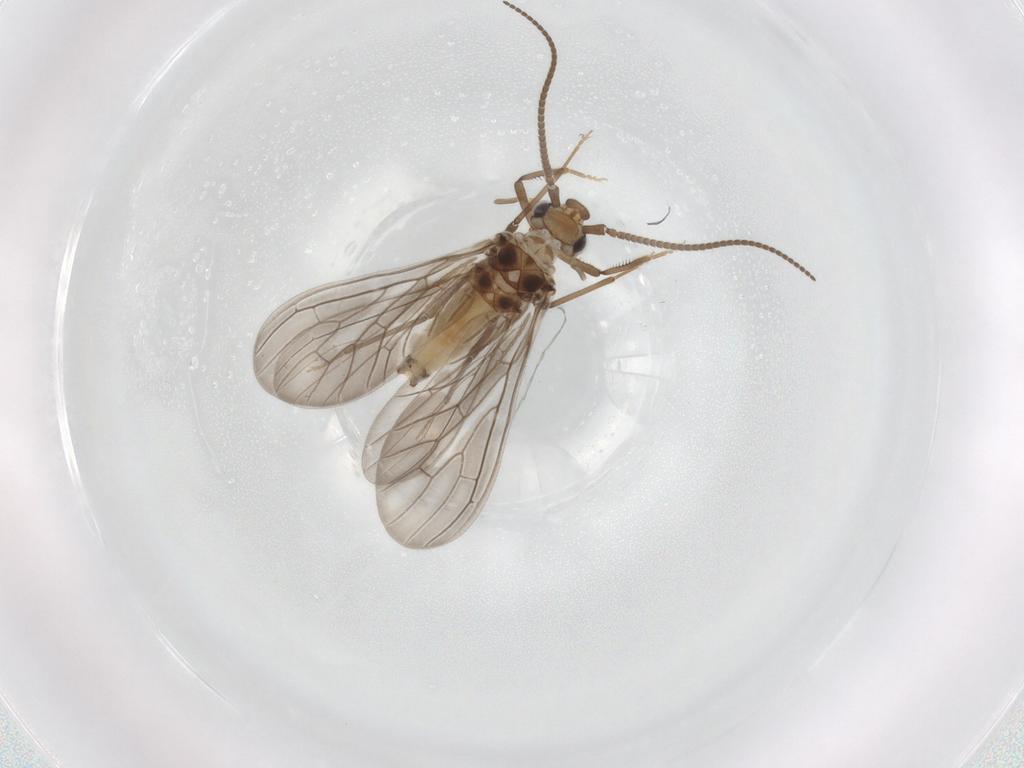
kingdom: Animalia
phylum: Arthropoda
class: Insecta
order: Neuroptera
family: Coniopterygidae
